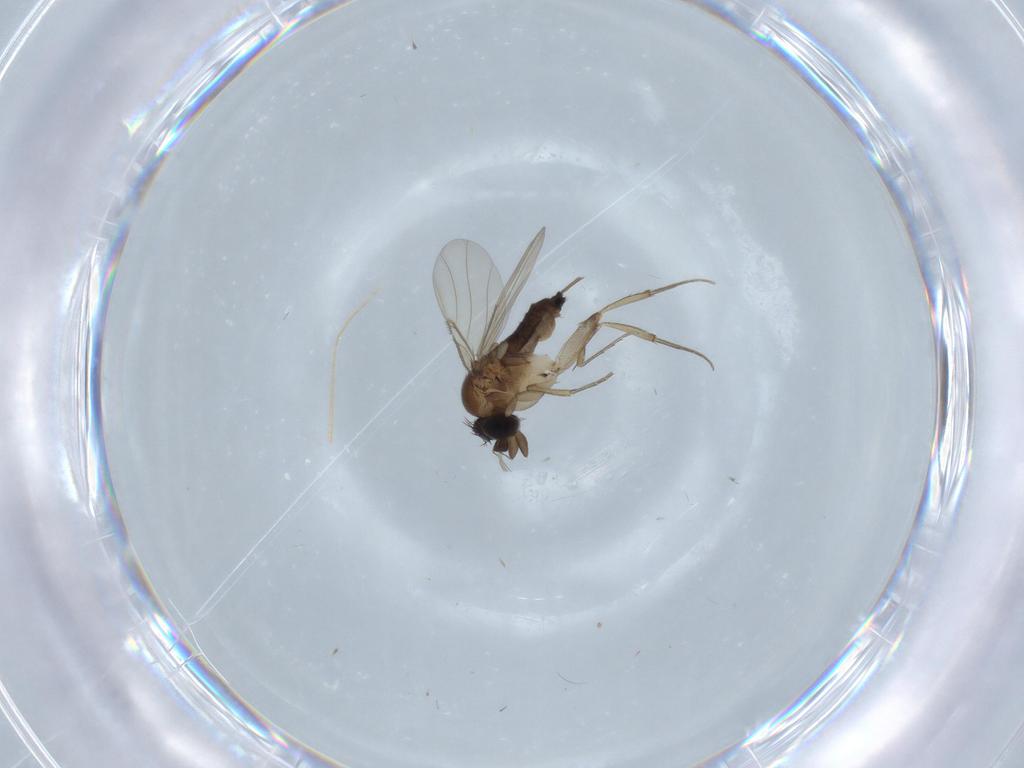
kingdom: Animalia
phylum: Arthropoda
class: Insecta
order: Diptera
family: Phoridae
